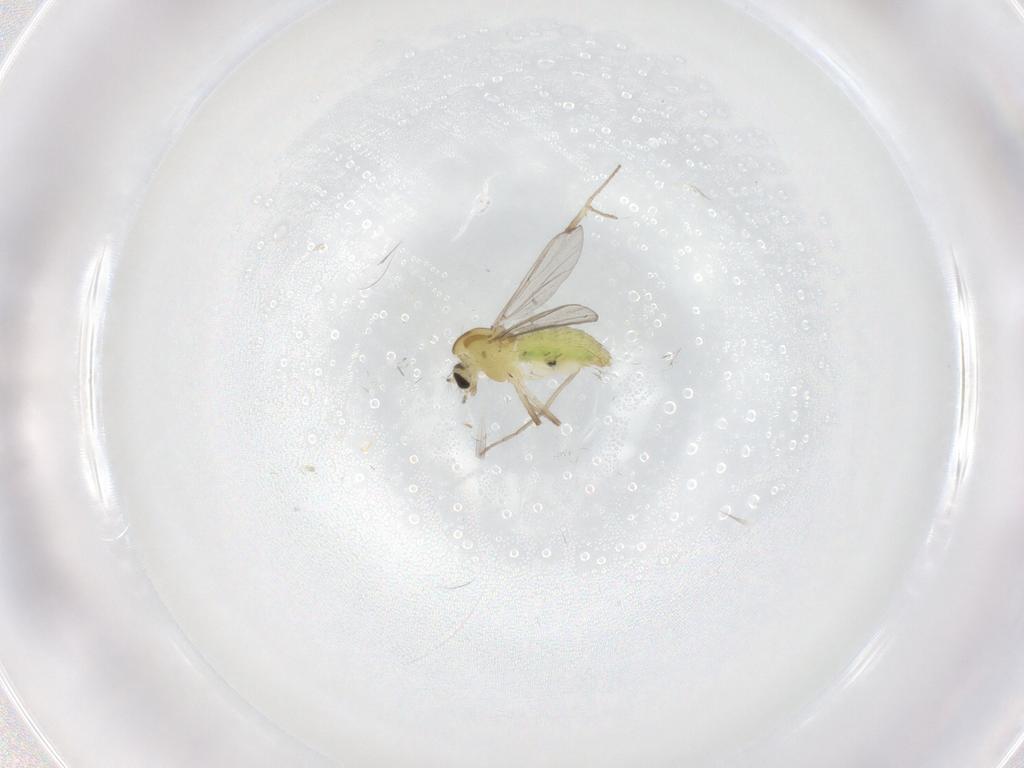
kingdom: Animalia
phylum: Arthropoda
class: Insecta
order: Diptera
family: Chironomidae
